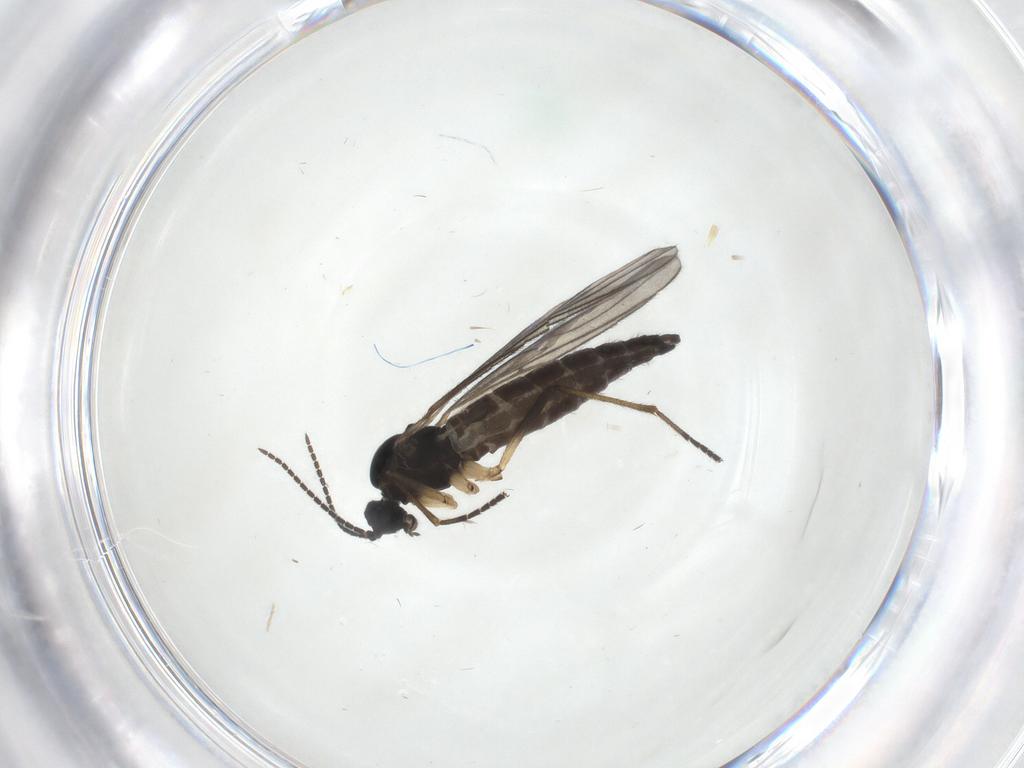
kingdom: Animalia
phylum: Arthropoda
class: Insecta
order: Diptera
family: Sciaridae
